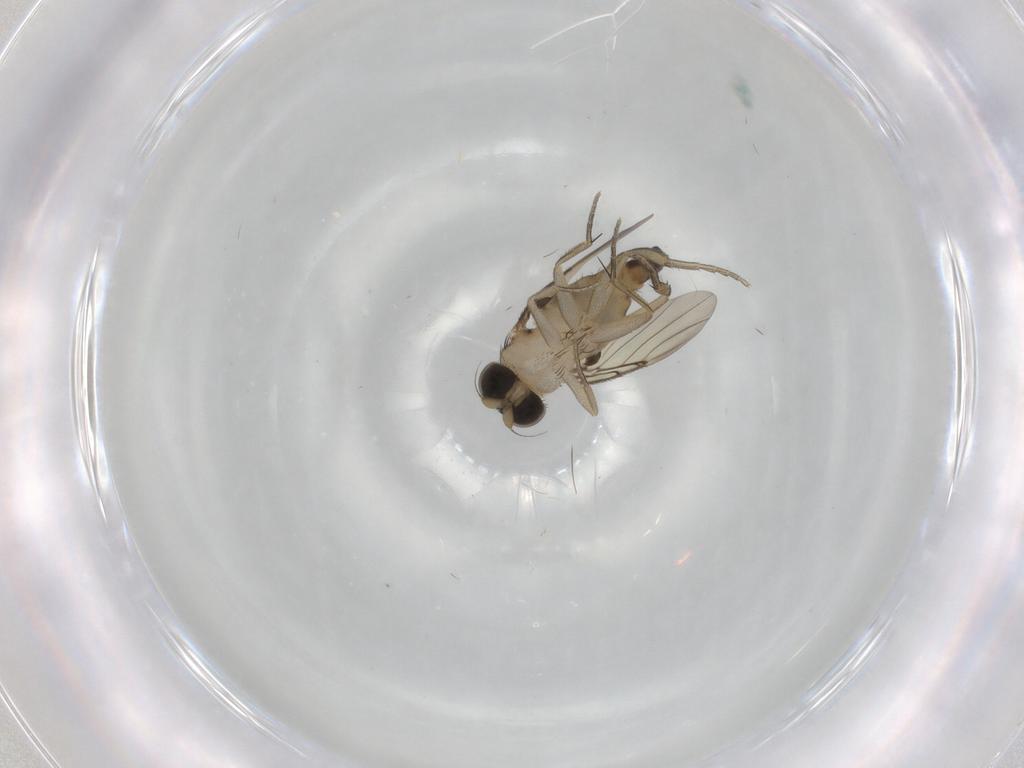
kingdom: Animalia
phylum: Arthropoda
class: Insecta
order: Diptera
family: Phoridae
